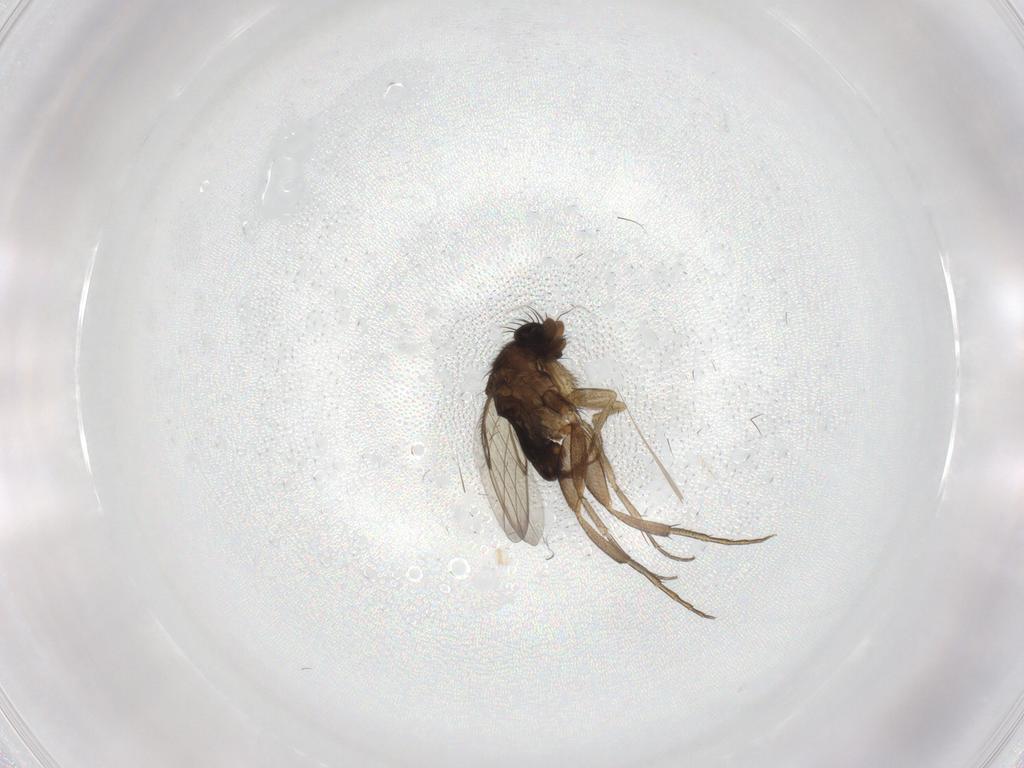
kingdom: Animalia
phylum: Arthropoda
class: Insecta
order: Diptera
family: Phoridae
